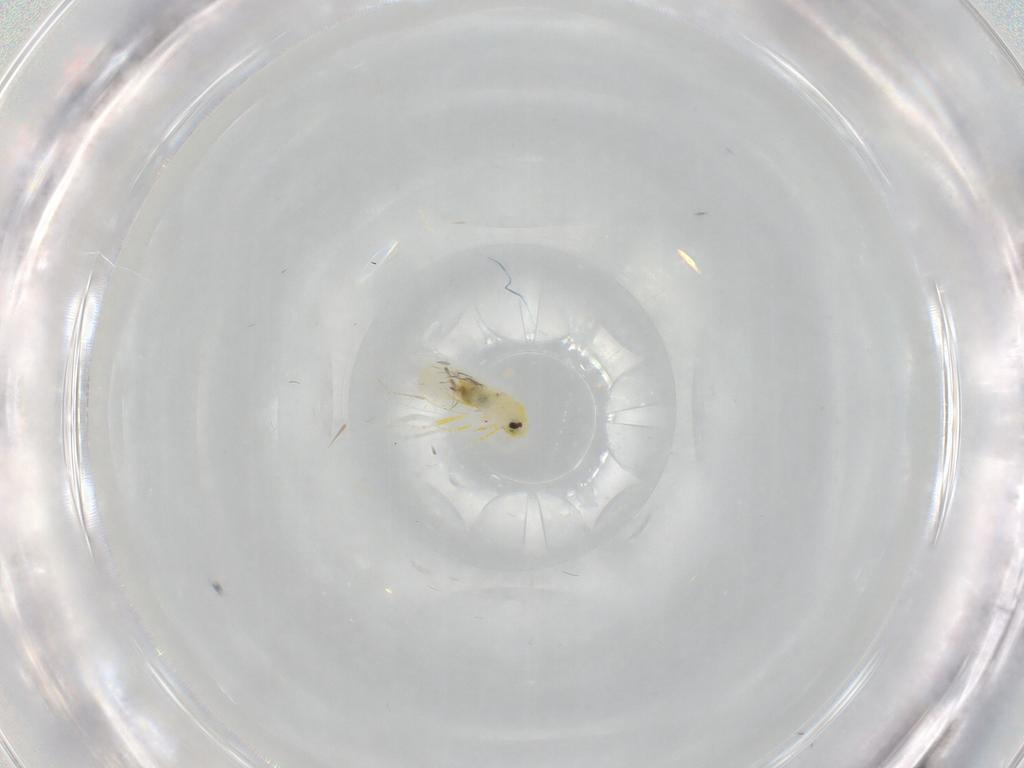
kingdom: Animalia
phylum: Arthropoda
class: Insecta
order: Hemiptera
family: Aleyrodidae
